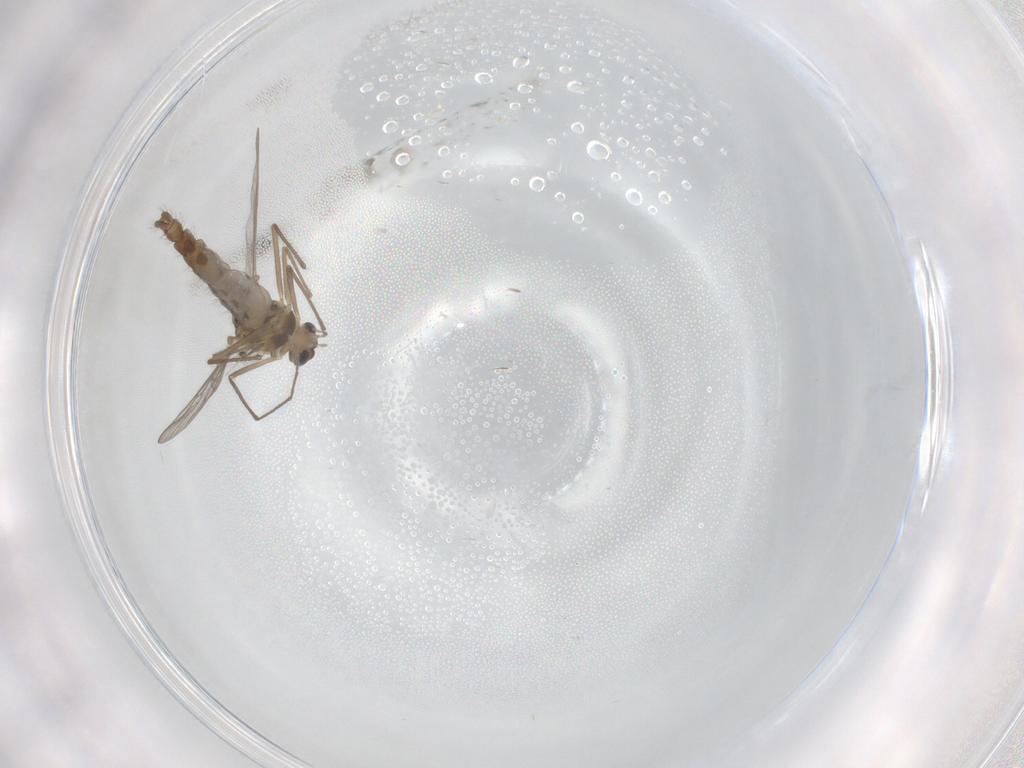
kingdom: Animalia
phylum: Arthropoda
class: Insecta
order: Diptera
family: Chironomidae
